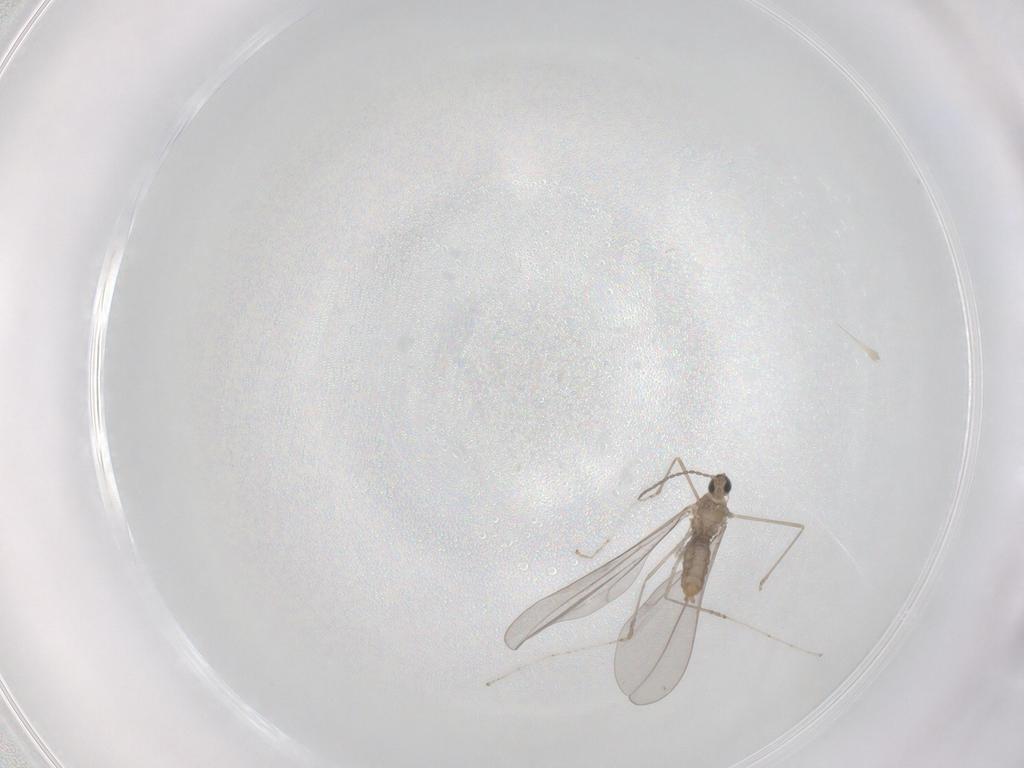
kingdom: Animalia
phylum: Arthropoda
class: Insecta
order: Diptera
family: Cecidomyiidae
